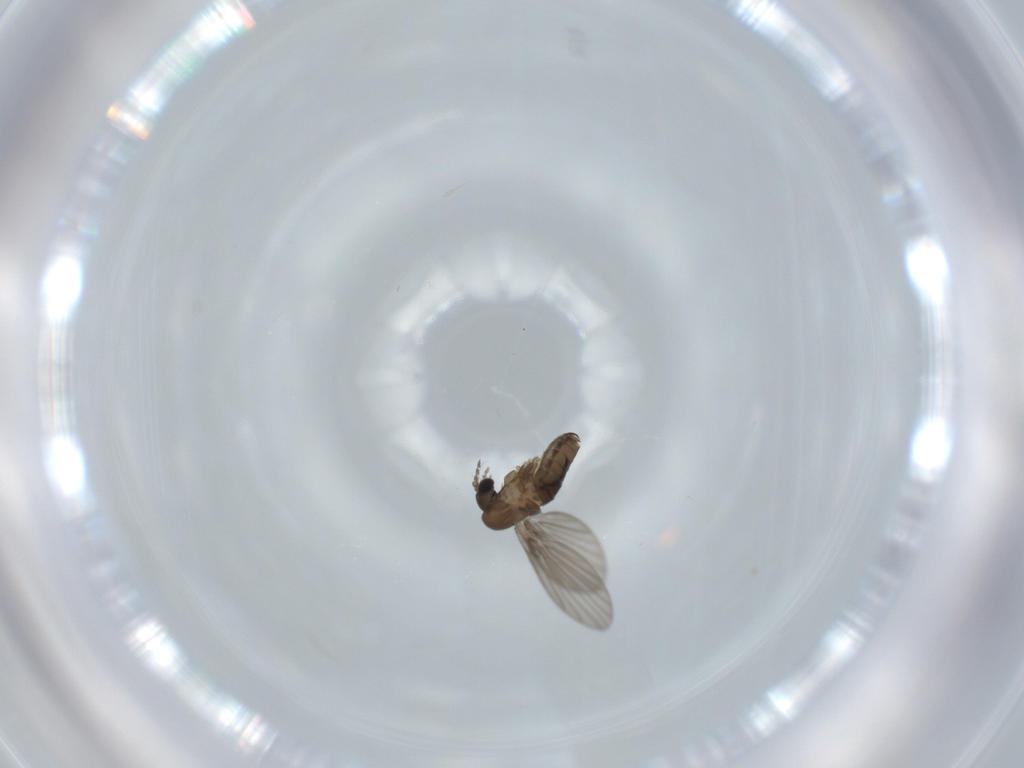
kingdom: Animalia
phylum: Arthropoda
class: Insecta
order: Diptera
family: Psychodidae
